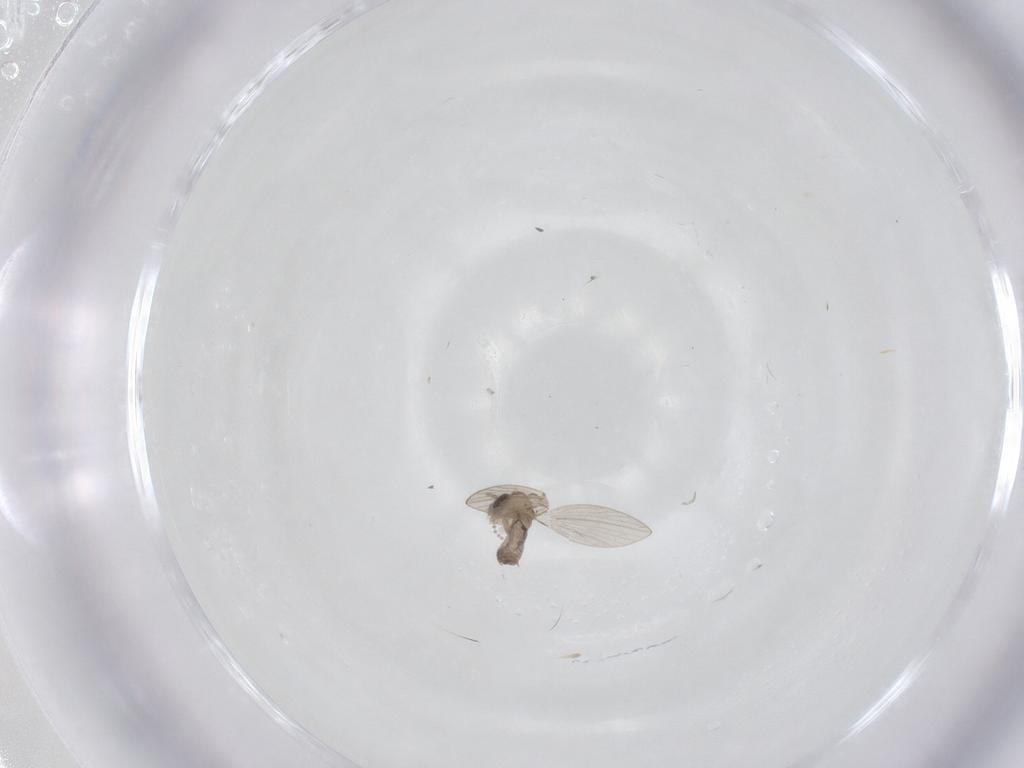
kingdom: Animalia
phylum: Arthropoda
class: Insecta
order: Diptera
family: Psychodidae
